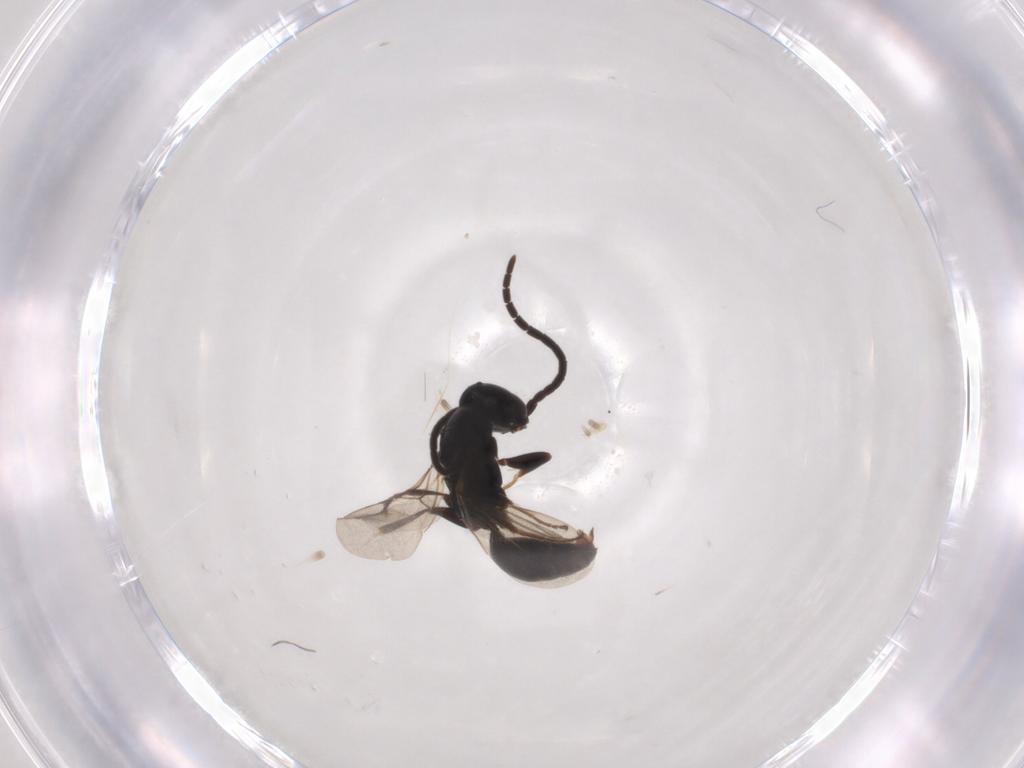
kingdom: Animalia
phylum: Arthropoda
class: Insecta
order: Hymenoptera
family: Bethylidae
